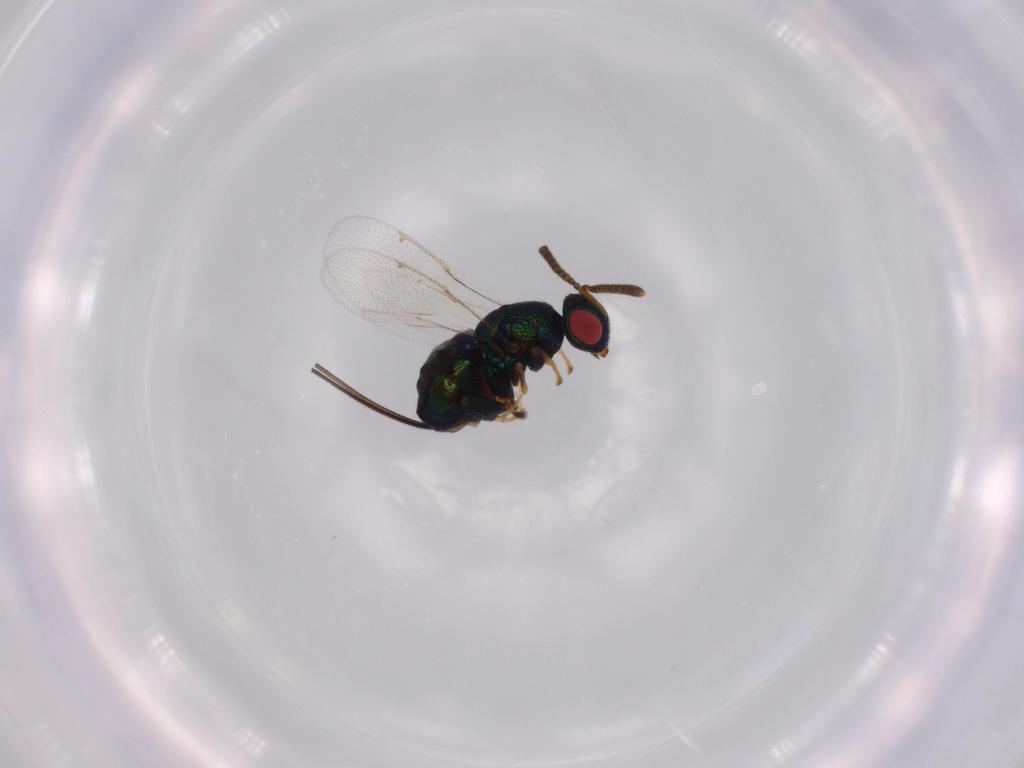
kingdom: Animalia
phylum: Arthropoda
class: Insecta
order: Hymenoptera
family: Torymidae
